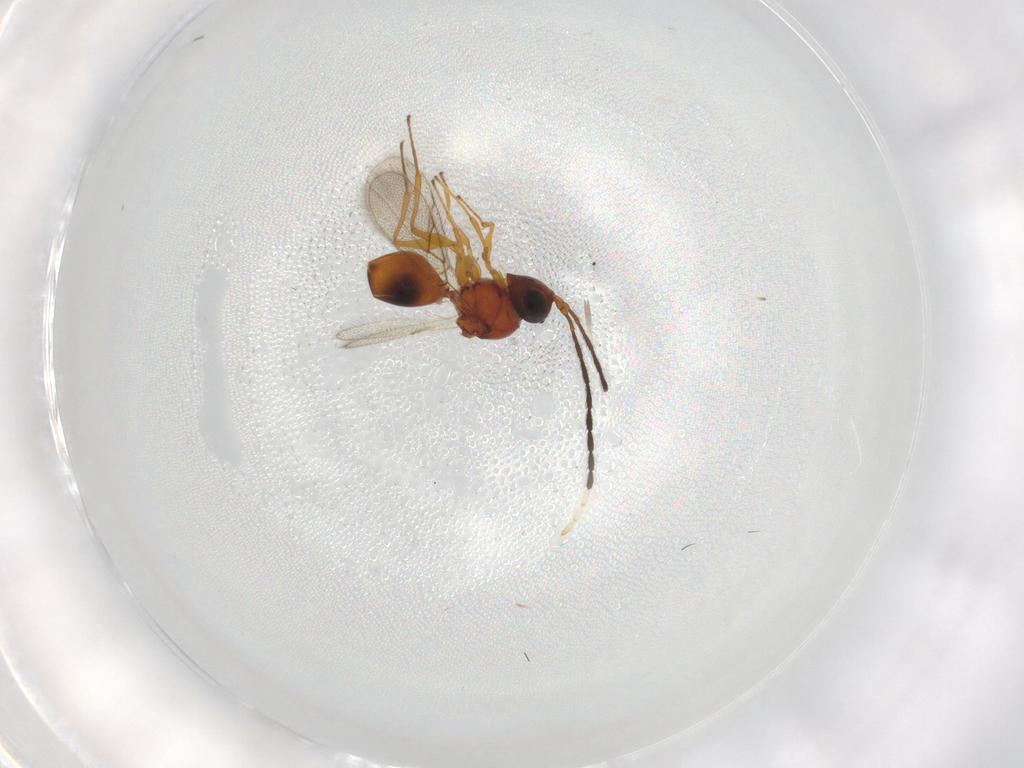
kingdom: Animalia
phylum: Arthropoda
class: Insecta
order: Hymenoptera
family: Figitidae
